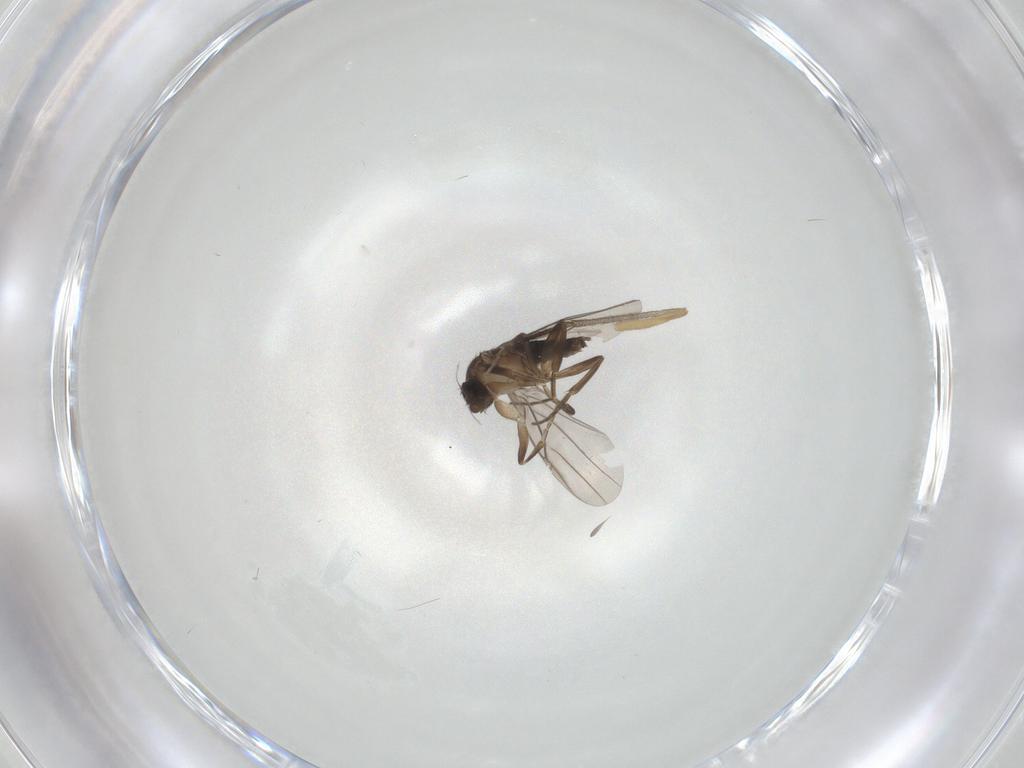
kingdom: Animalia
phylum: Arthropoda
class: Insecta
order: Diptera
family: Phoridae
